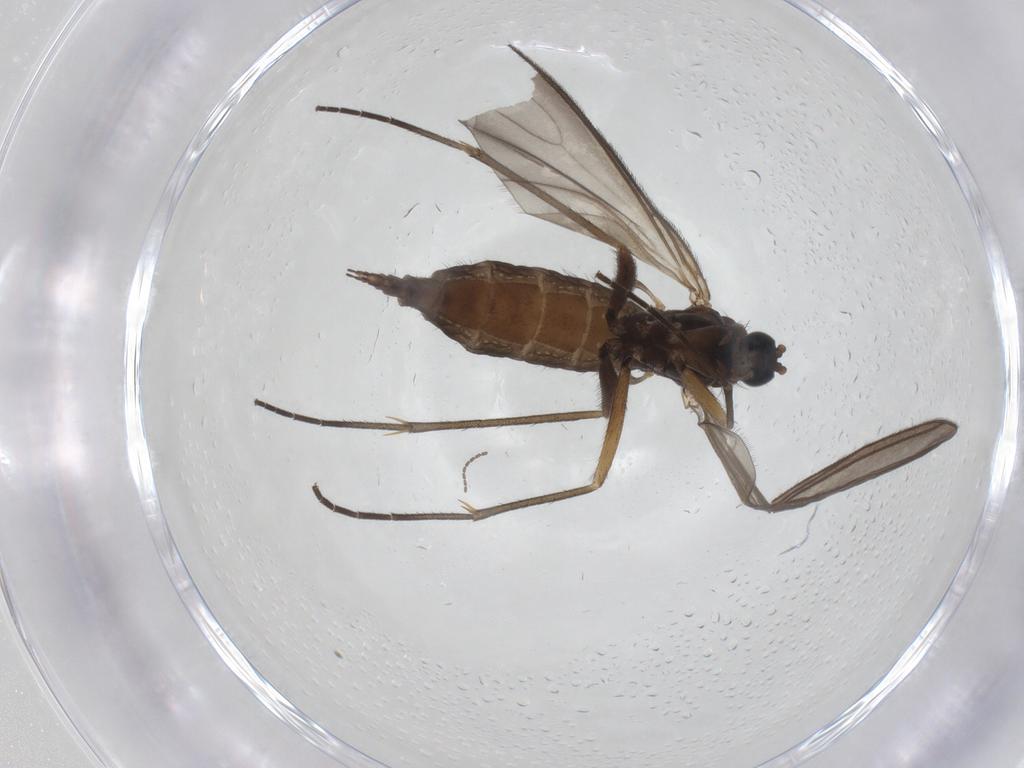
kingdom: Animalia
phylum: Arthropoda
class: Insecta
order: Diptera
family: Sciaridae
